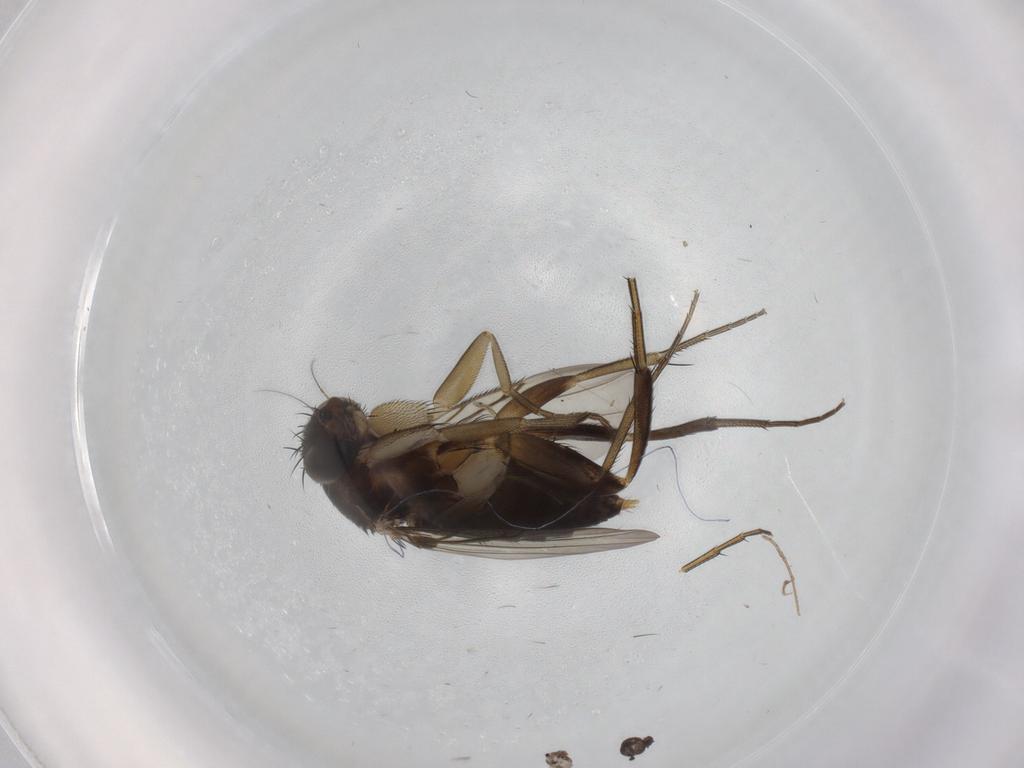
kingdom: Animalia
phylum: Arthropoda
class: Insecta
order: Diptera
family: Phoridae
